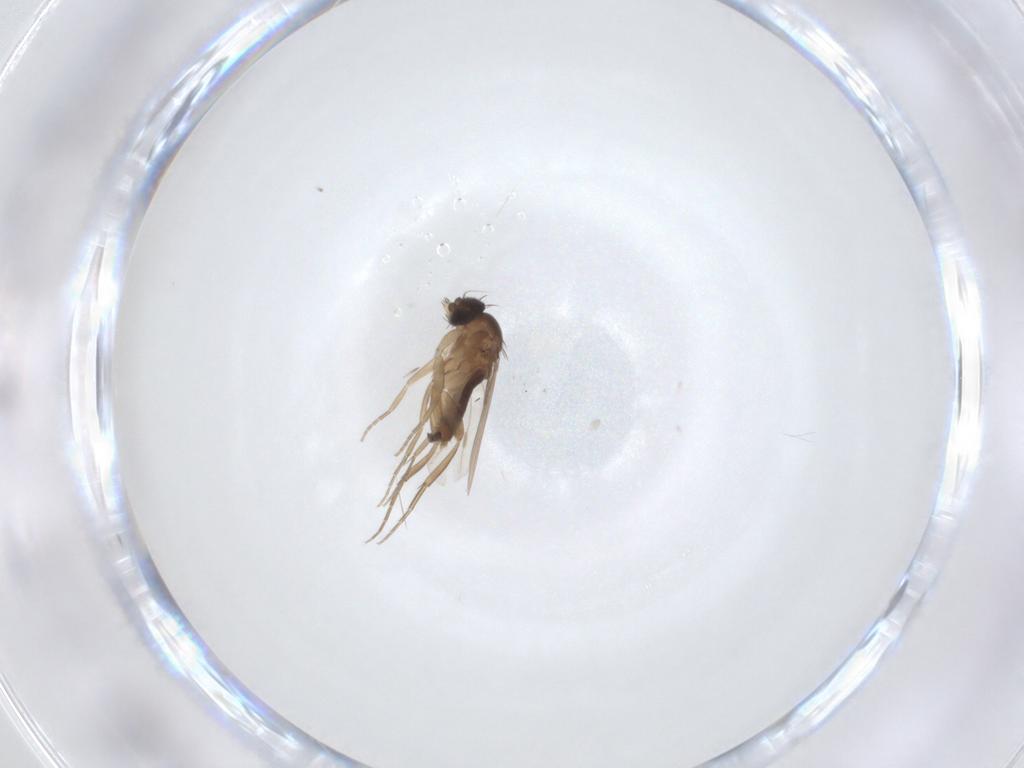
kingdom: Animalia
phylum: Arthropoda
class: Insecta
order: Diptera
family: Phoridae
